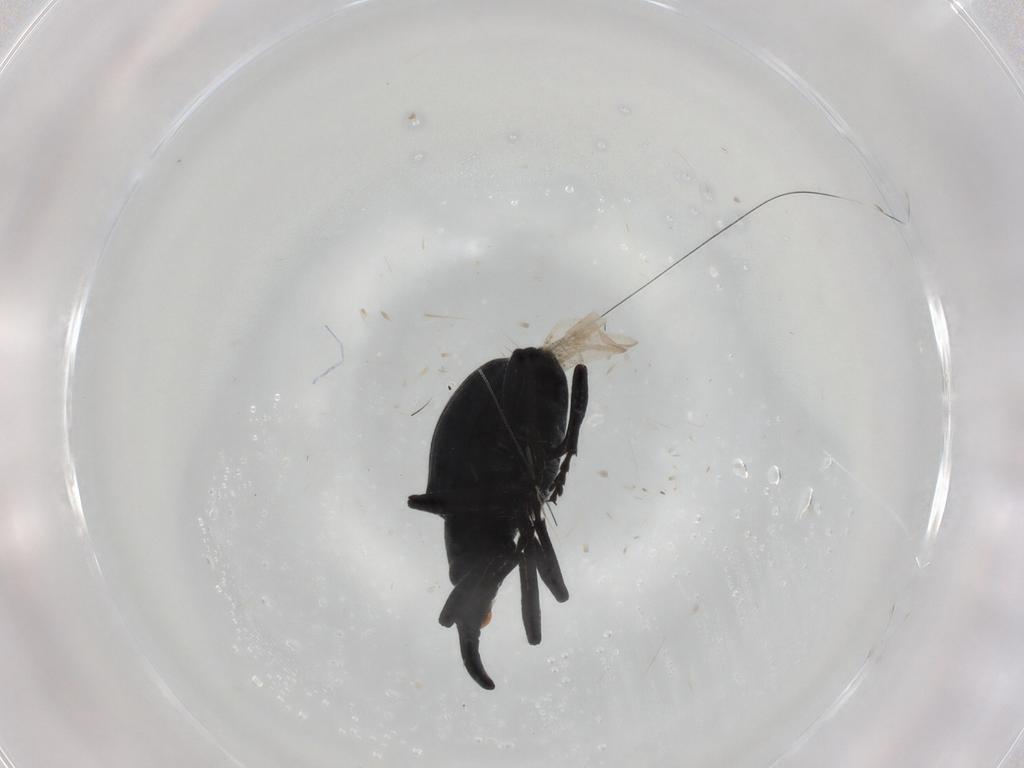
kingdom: Animalia
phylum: Arthropoda
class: Insecta
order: Coleoptera
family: Apionidae
